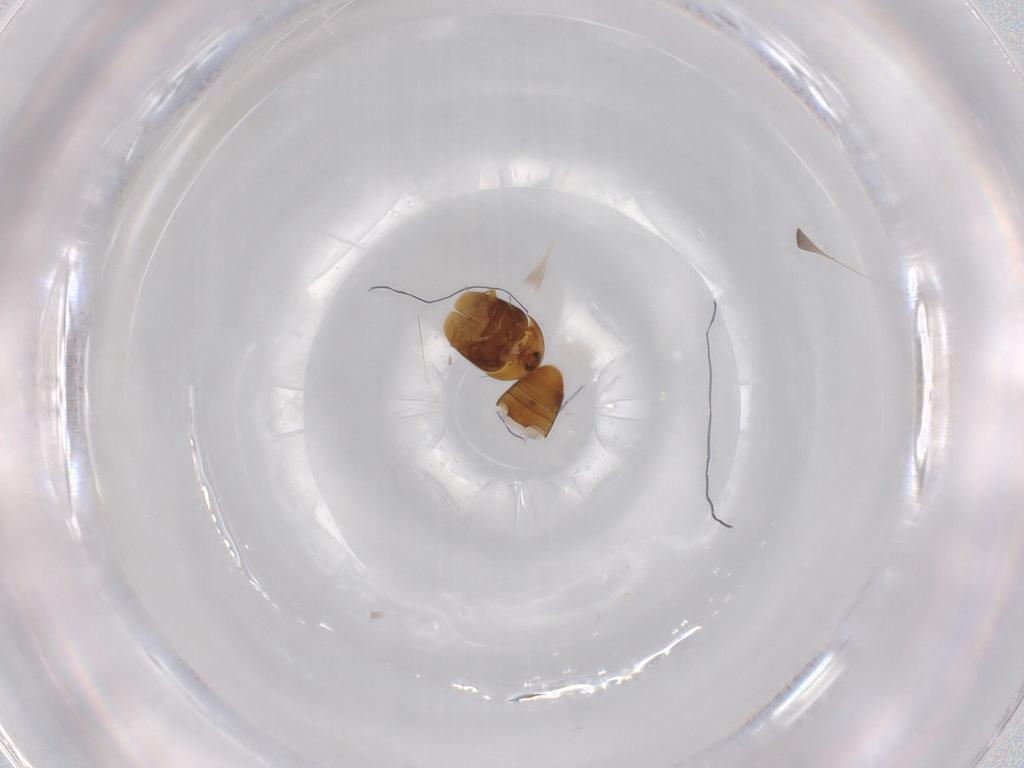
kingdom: Animalia
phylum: Arthropoda
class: Insecta
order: Coleoptera
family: Corylophidae
